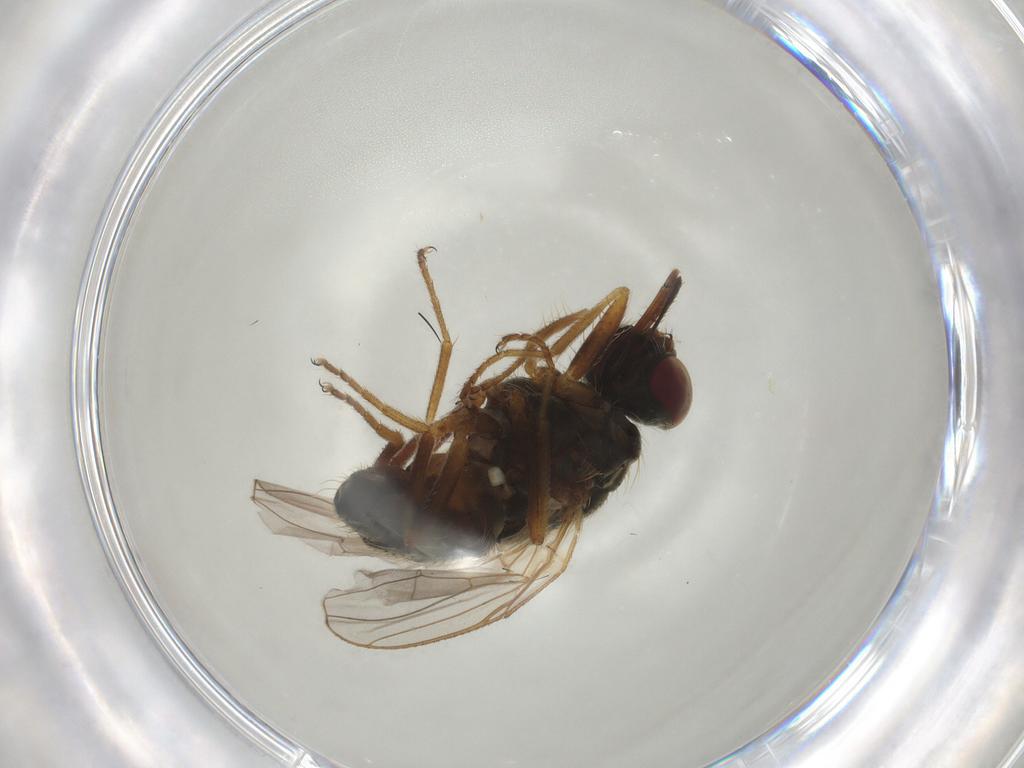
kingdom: Animalia
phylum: Arthropoda
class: Insecta
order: Diptera
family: Muscidae
